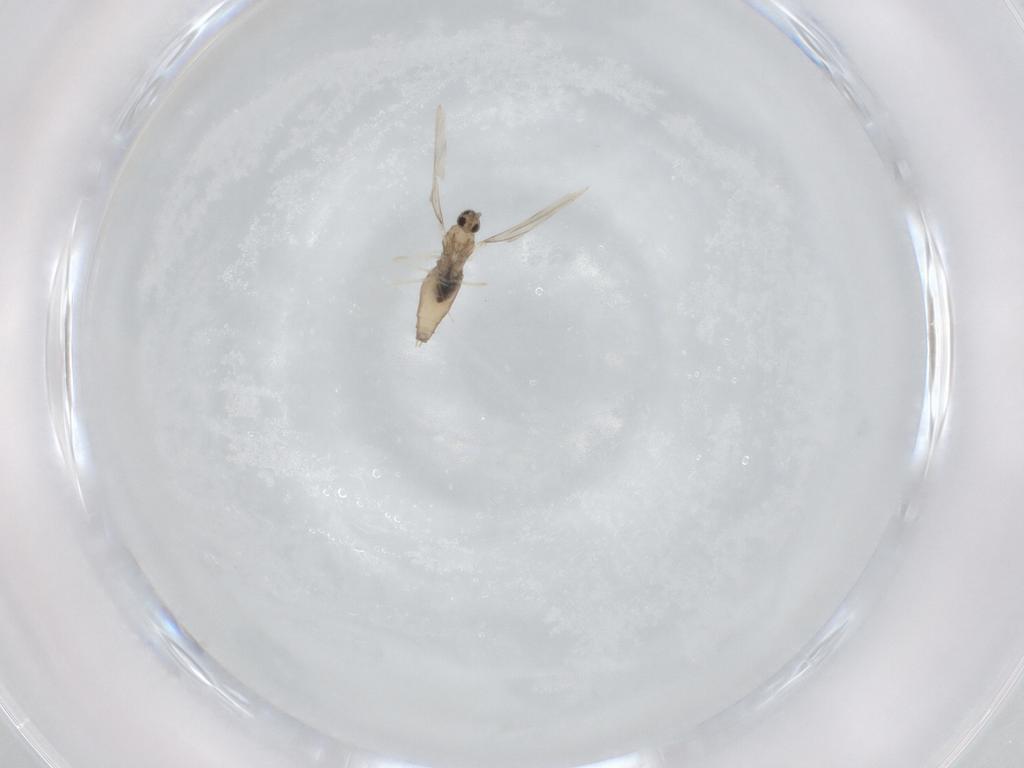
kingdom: Animalia
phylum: Arthropoda
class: Insecta
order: Diptera
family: Cecidomyiidae
